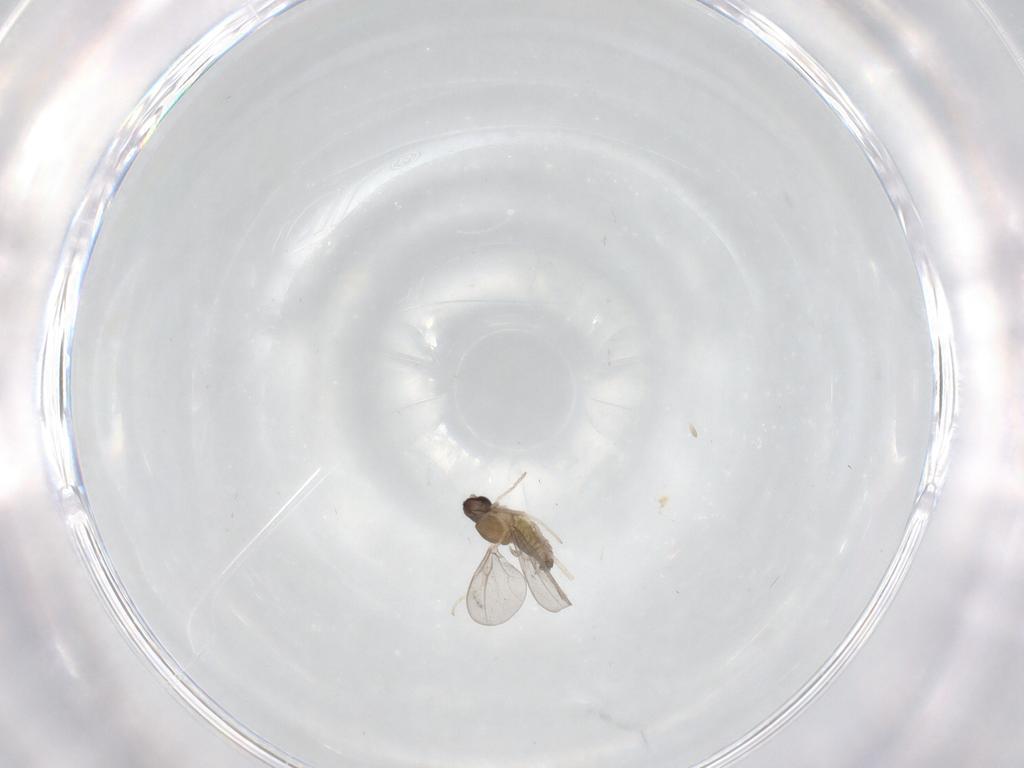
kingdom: Animalia
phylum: Arthropoda
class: Insecta
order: Diptera
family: Cecidomyiidae
